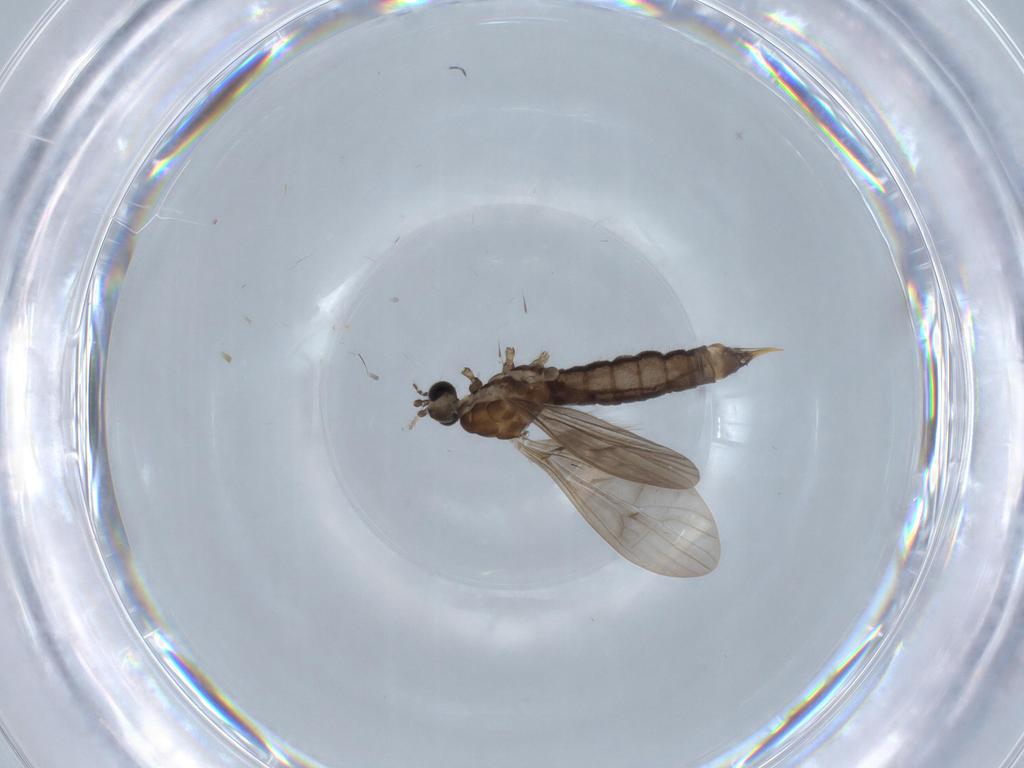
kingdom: Animalia
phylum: Arthropoda
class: Insecta
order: Diptera
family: Limoniidae
